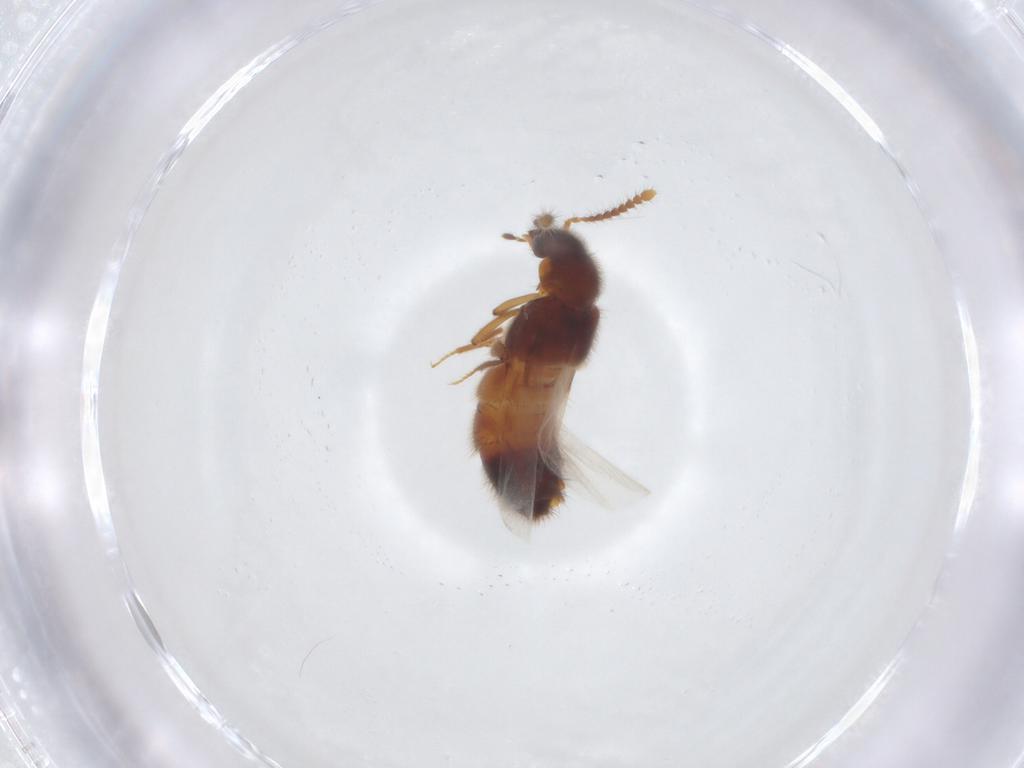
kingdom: Animalia
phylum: Arthropoda
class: Insecta
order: Coleoptera
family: Staphylinidae
